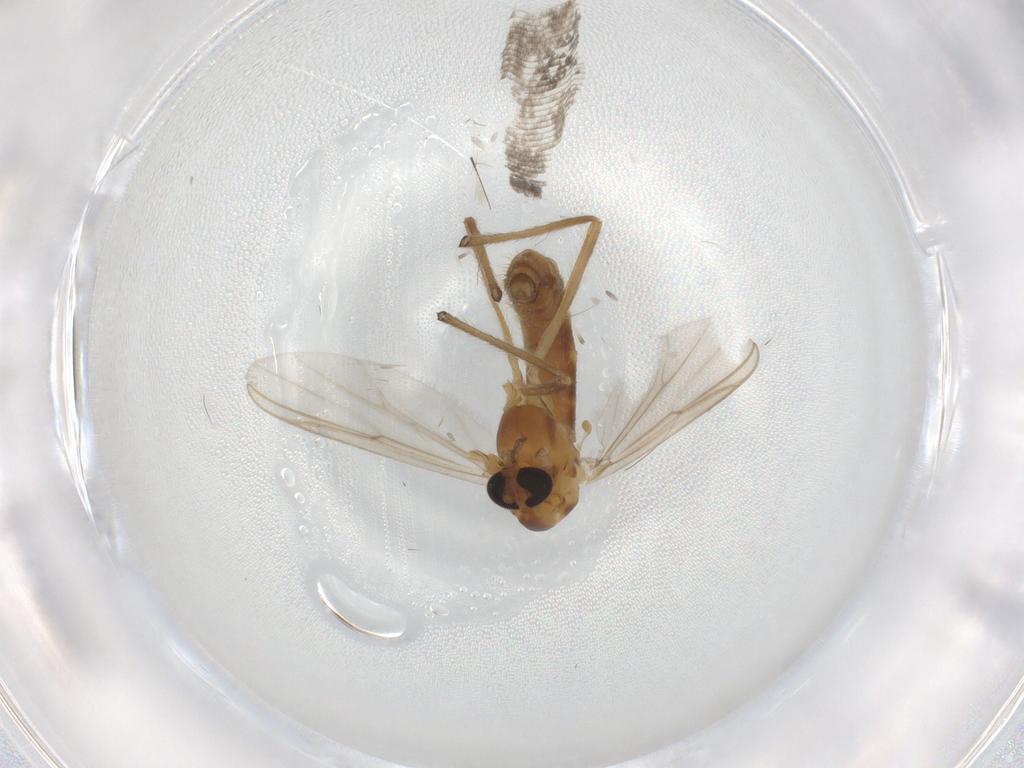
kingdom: Animalia
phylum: Arthropoda
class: Insecta
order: Diptera
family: Chironomidae
